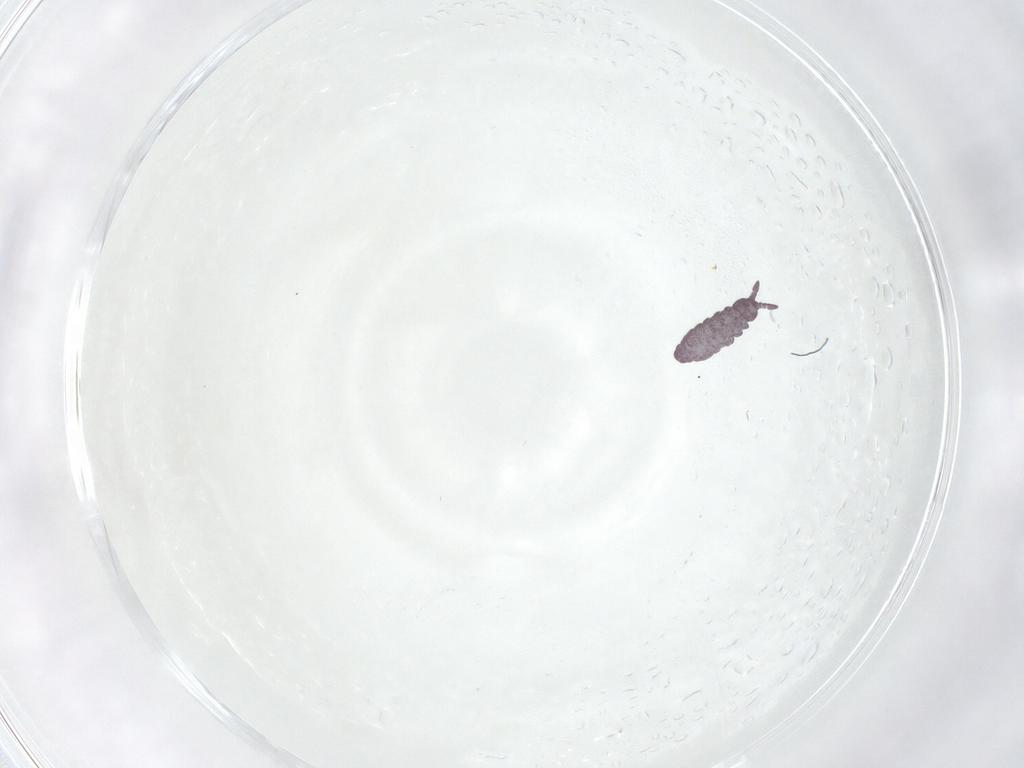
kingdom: Animalia
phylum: Arthropoda
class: Collembola
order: Poduromorpha
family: Hypogastruridae
